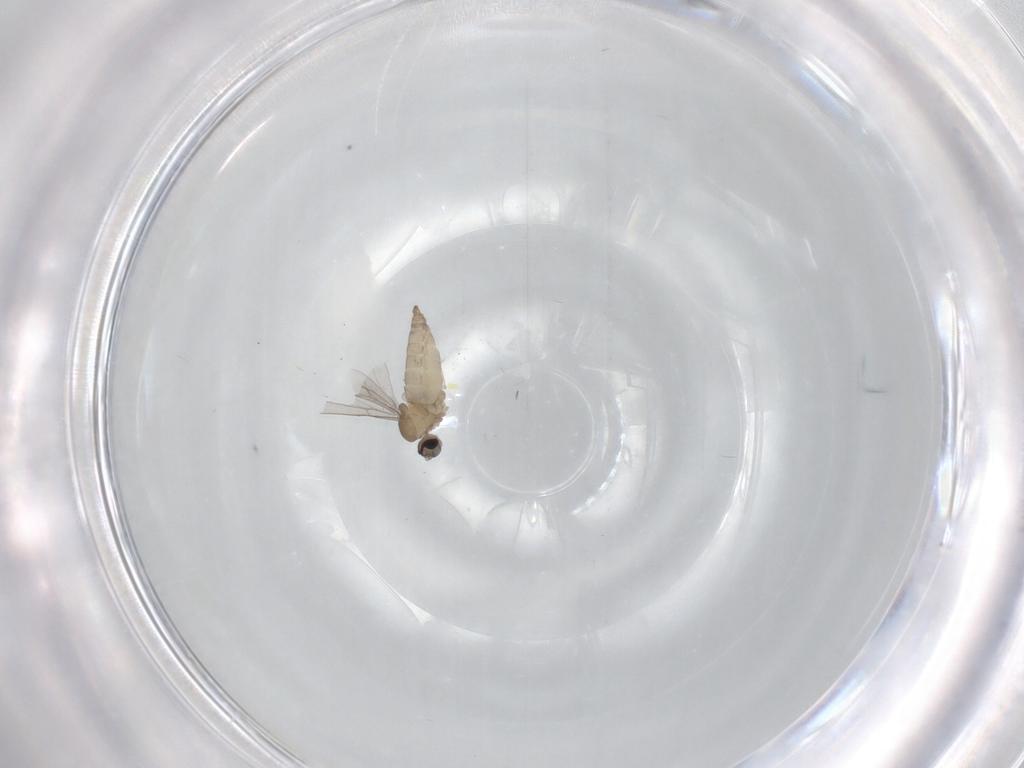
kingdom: Animalia
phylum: Arthropoda
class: Insecta
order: Diptera
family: Cecidomyiidae
